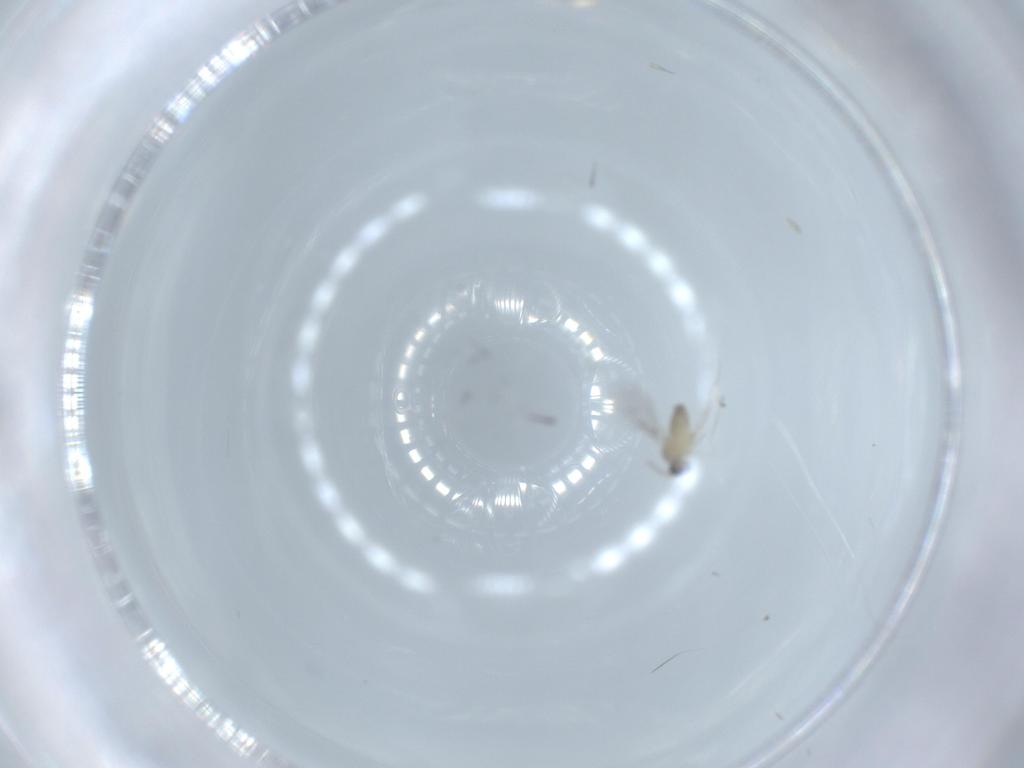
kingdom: Animalia
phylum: Arthropoda
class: Insecta
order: Diptera
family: Cecidomyiidae
